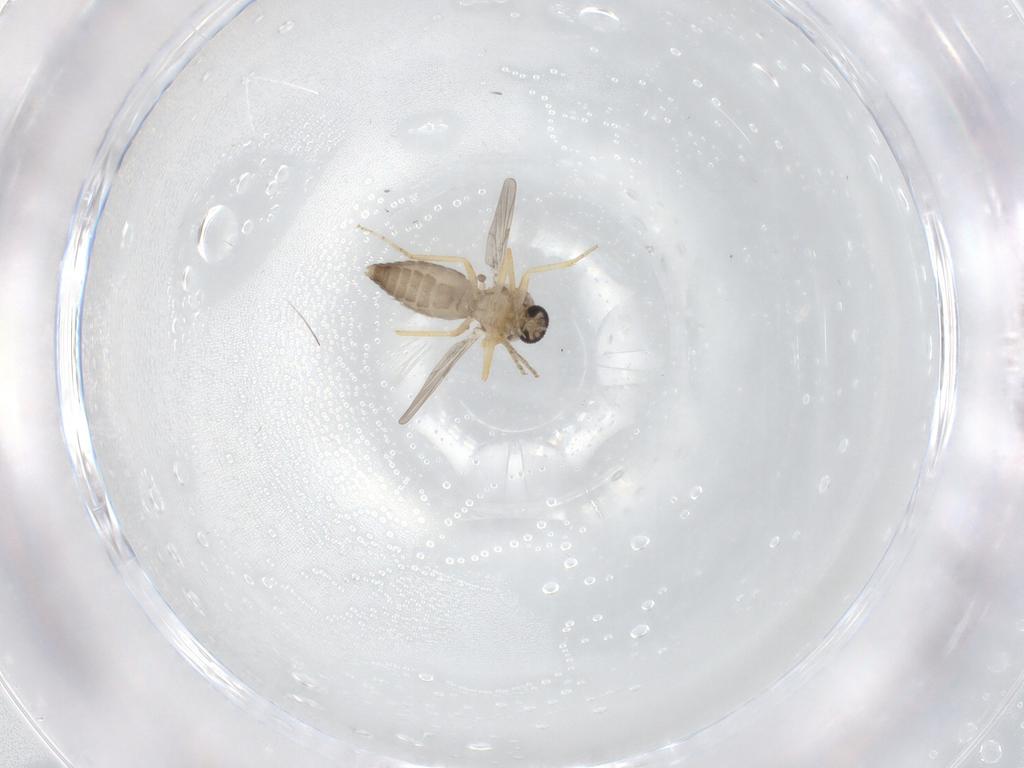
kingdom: Animalia
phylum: Arthropoda
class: Insecta
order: Diptera
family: Ceratopogonidae
